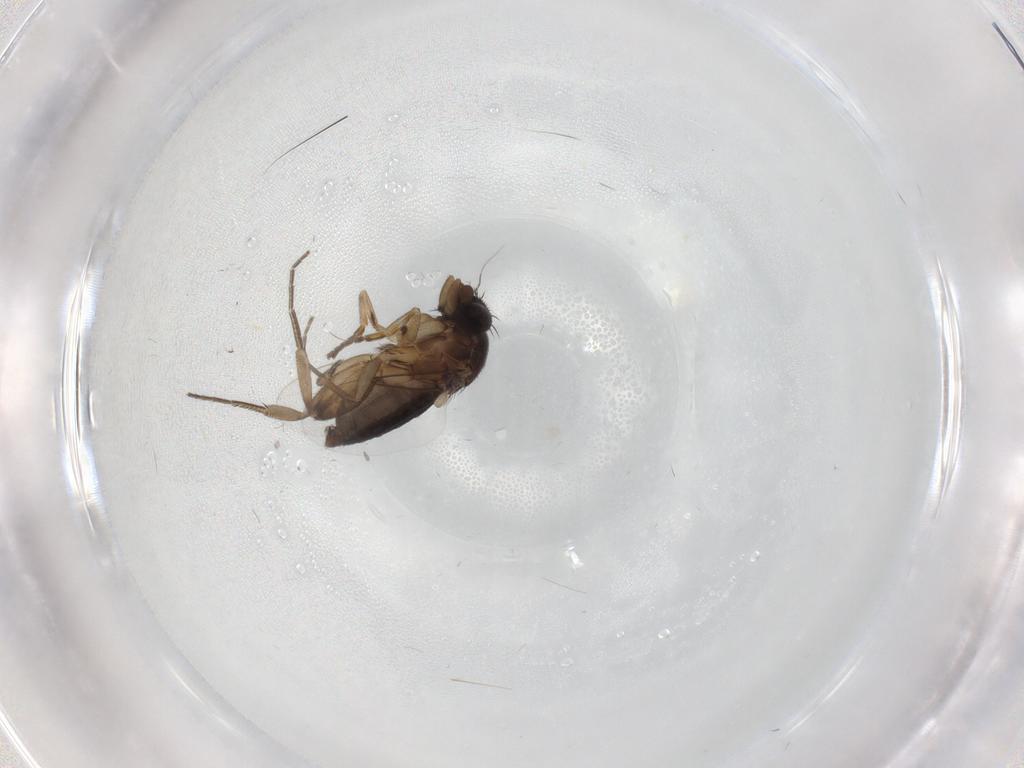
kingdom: Animalia
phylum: Arthropoda
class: Insecta
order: Diptera
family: Phoridae
